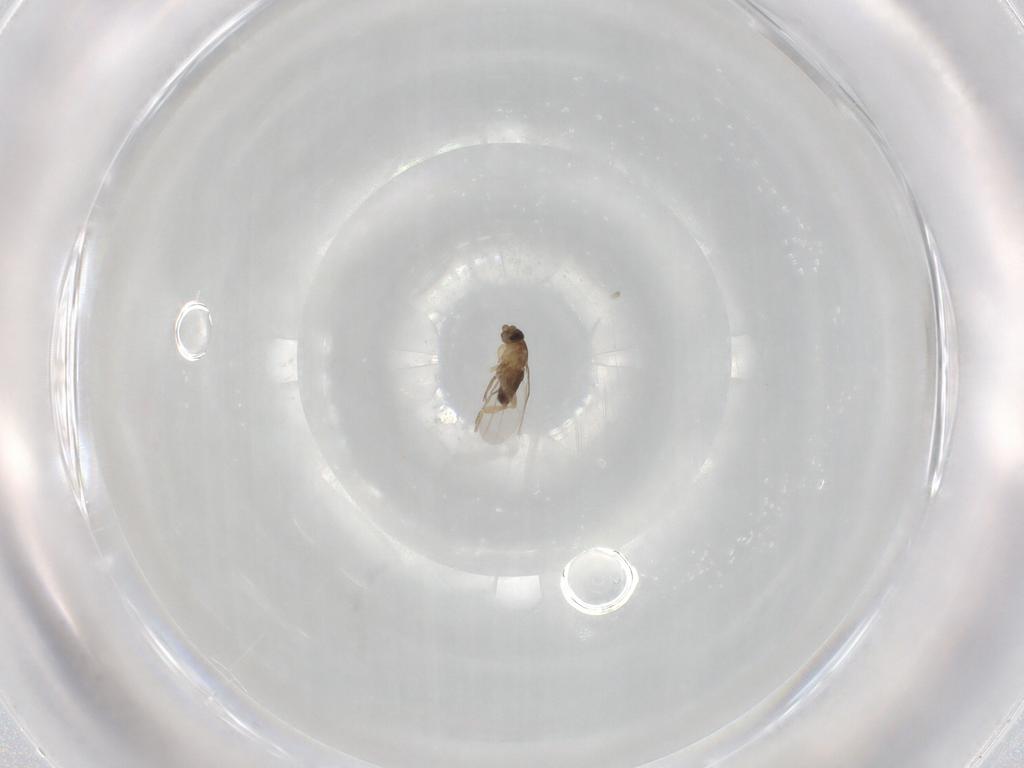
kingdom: Animalia
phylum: Arthropoda
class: Insecta
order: Diptera
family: Phoridae
